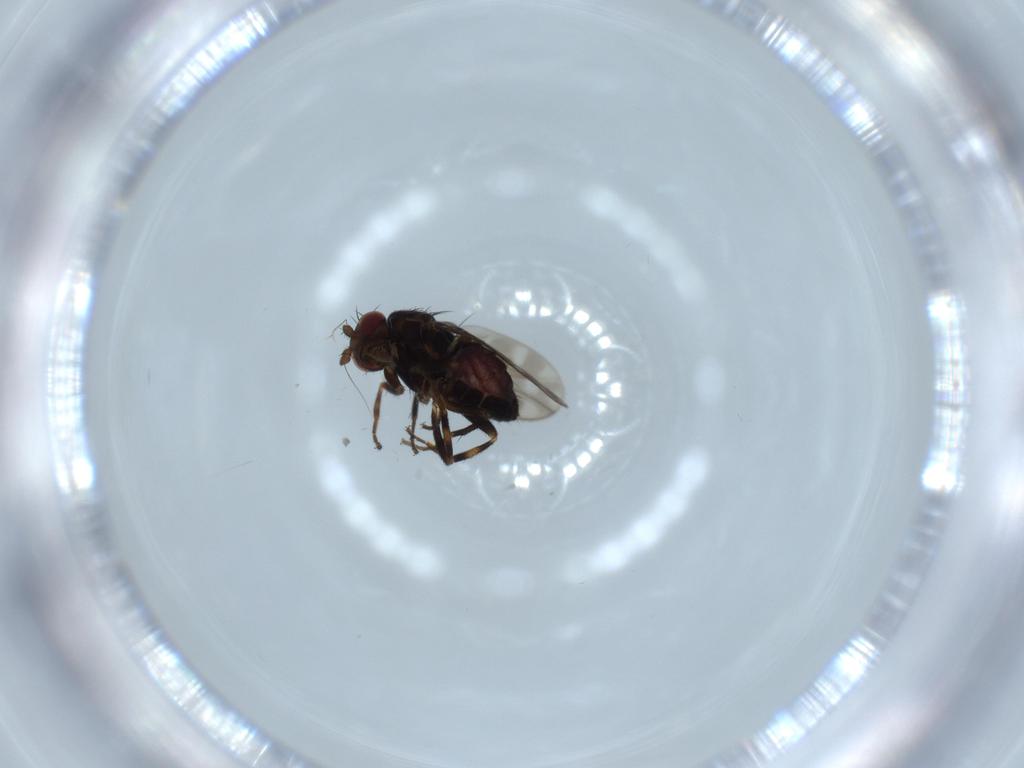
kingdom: Animalia
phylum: Arthropoda
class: Insecta
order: Diptera
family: Sphaeroceridae
